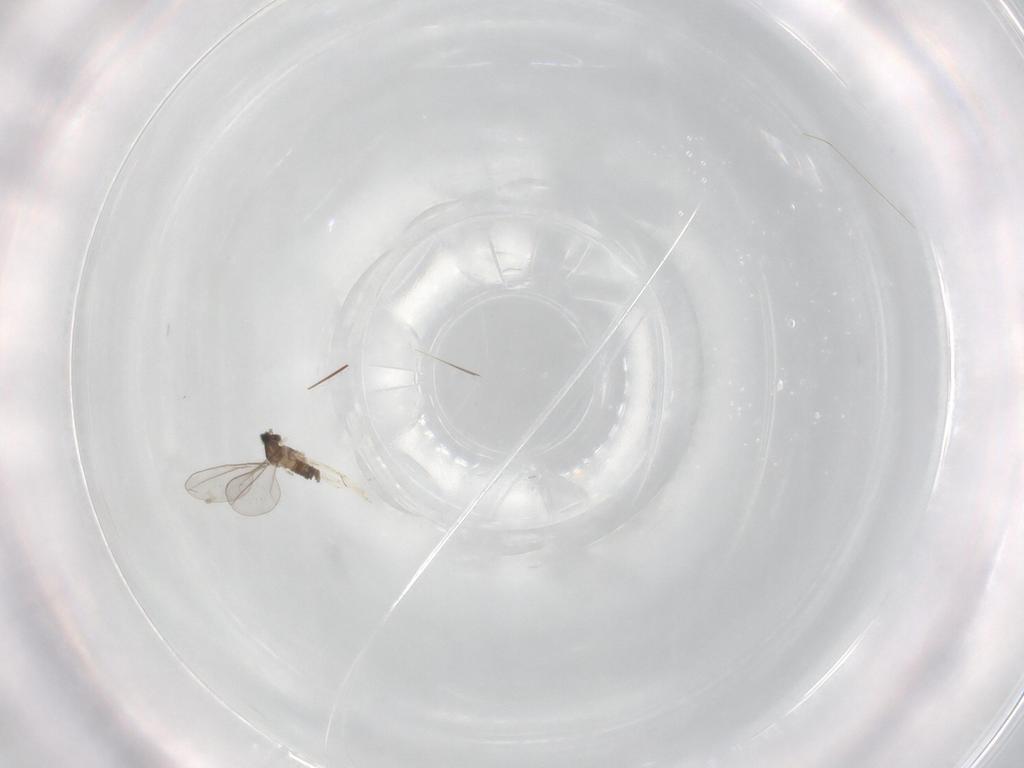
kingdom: Animalia
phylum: Arthropoda
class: Insecta
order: Diptera
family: Cecidomyiidae
